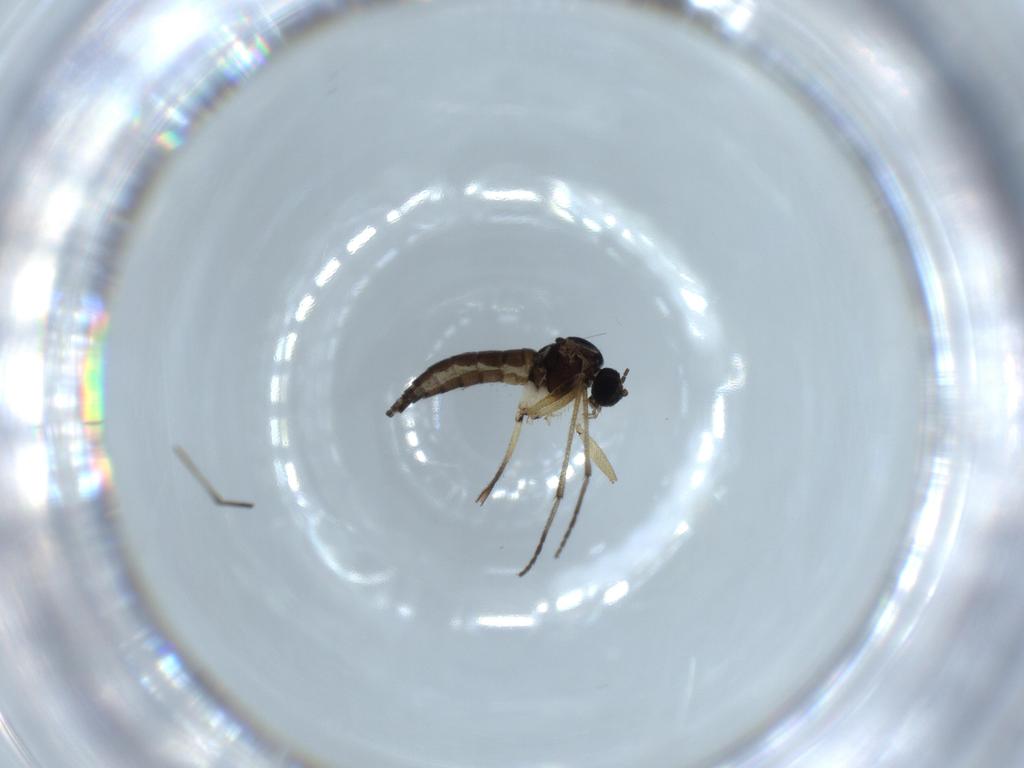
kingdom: Animalia
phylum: Arthropoda
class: Insecta
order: Diptera
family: Sciaridae
